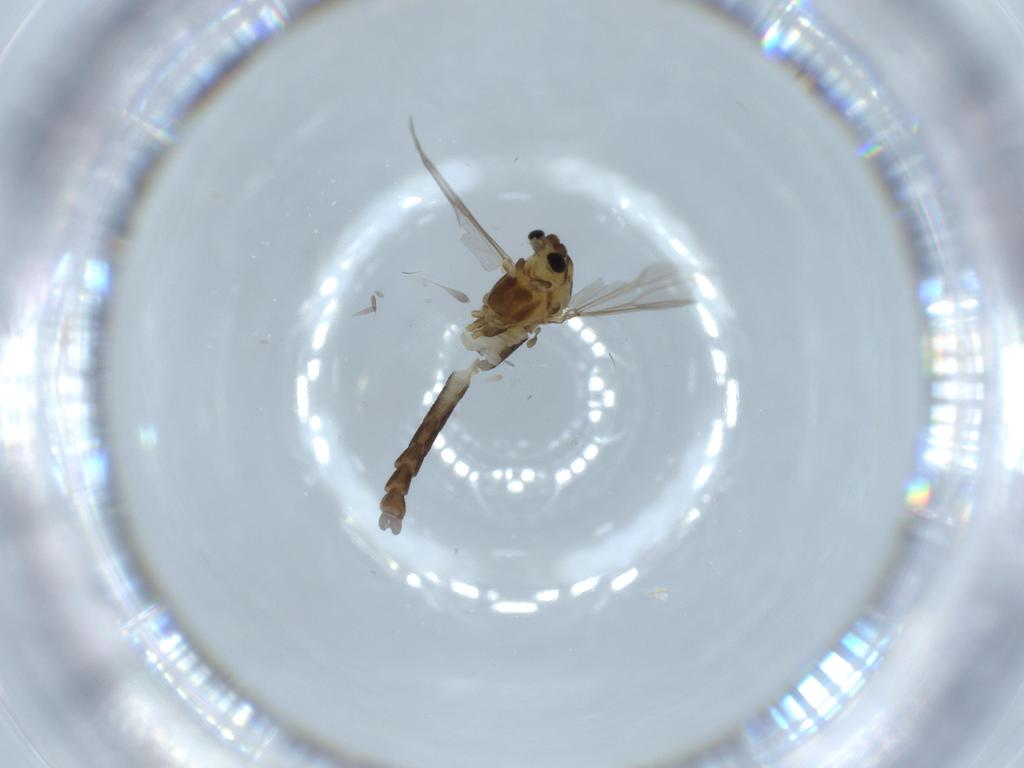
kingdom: Animalia
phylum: Arthropoda
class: Insecta
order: Diptera
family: Chironomidae
